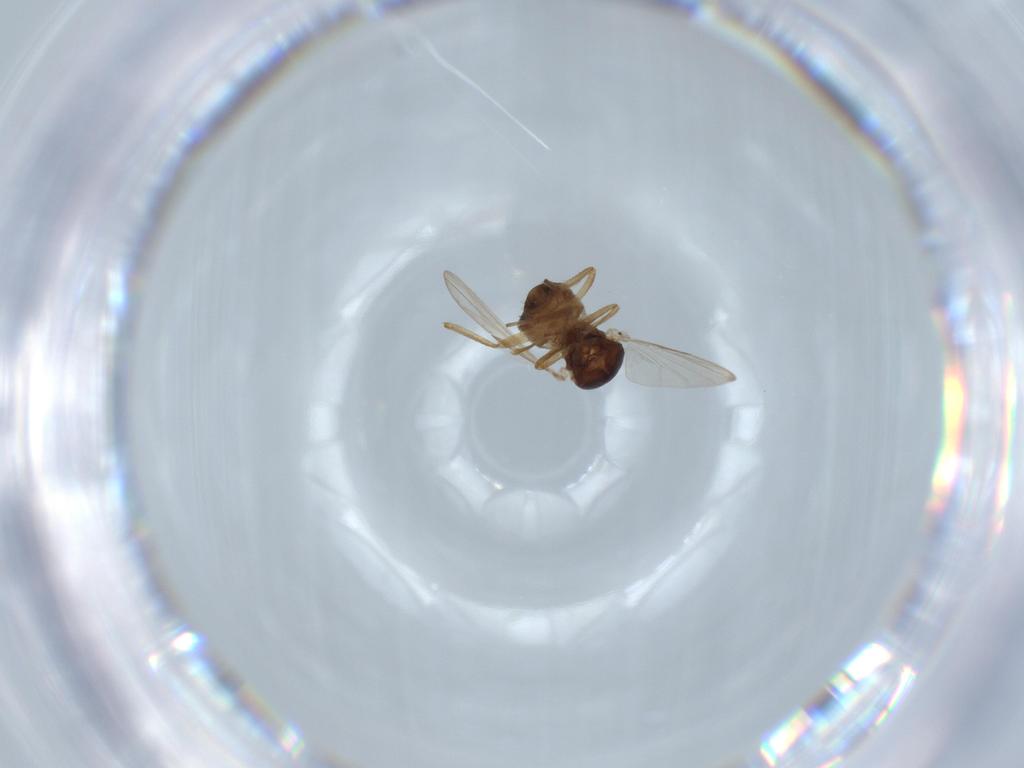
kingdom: Animalia
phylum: Arthropoda
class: Insecta
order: Diptera
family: Ceratopogonidae
